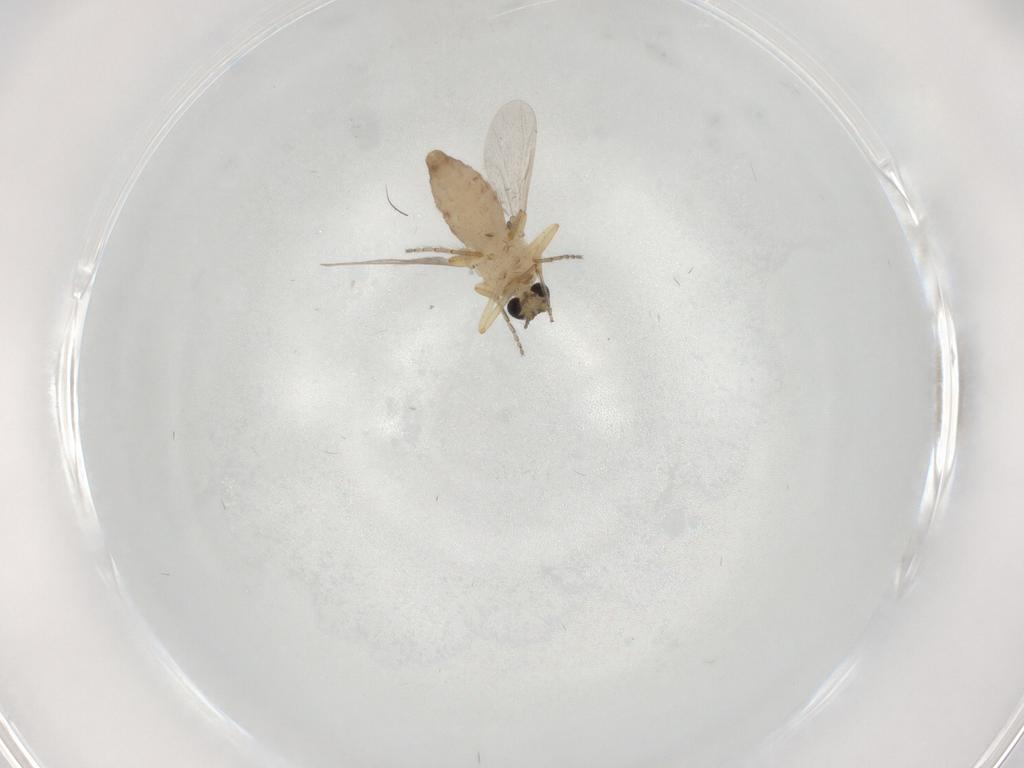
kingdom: Animalia
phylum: Arthropoda
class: Insecta
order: Diptera
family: Ceratopogonidae
